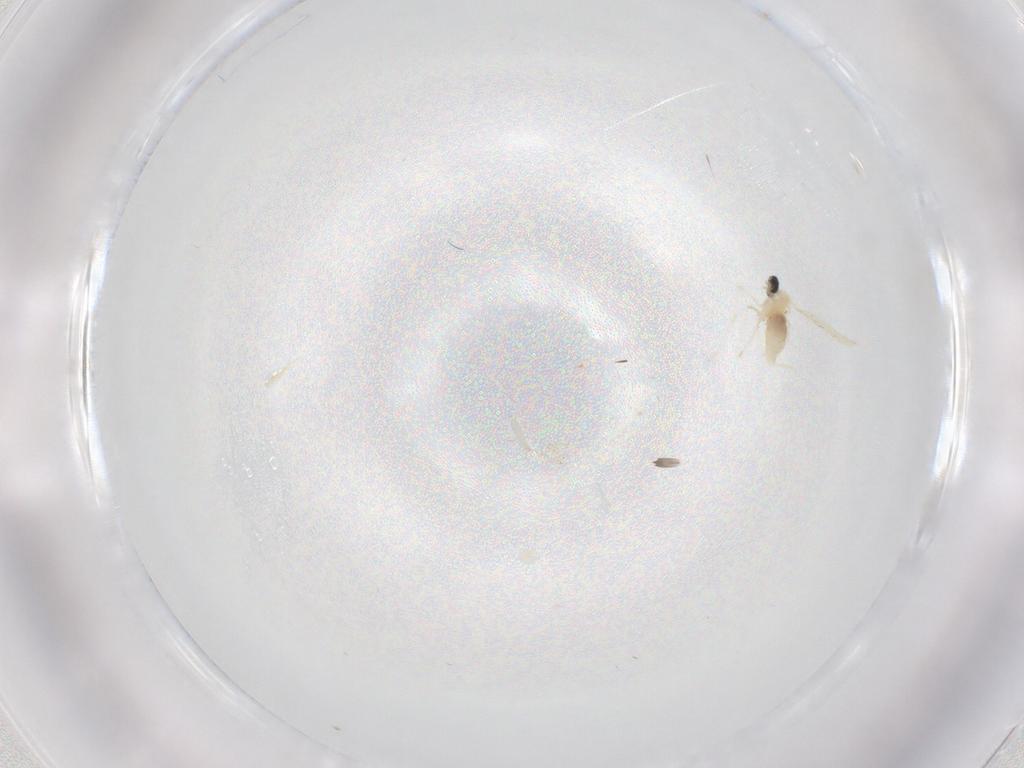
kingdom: Animalia
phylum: Arthropoda
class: Insecta
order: Diptera
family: Cecidomyiidae
